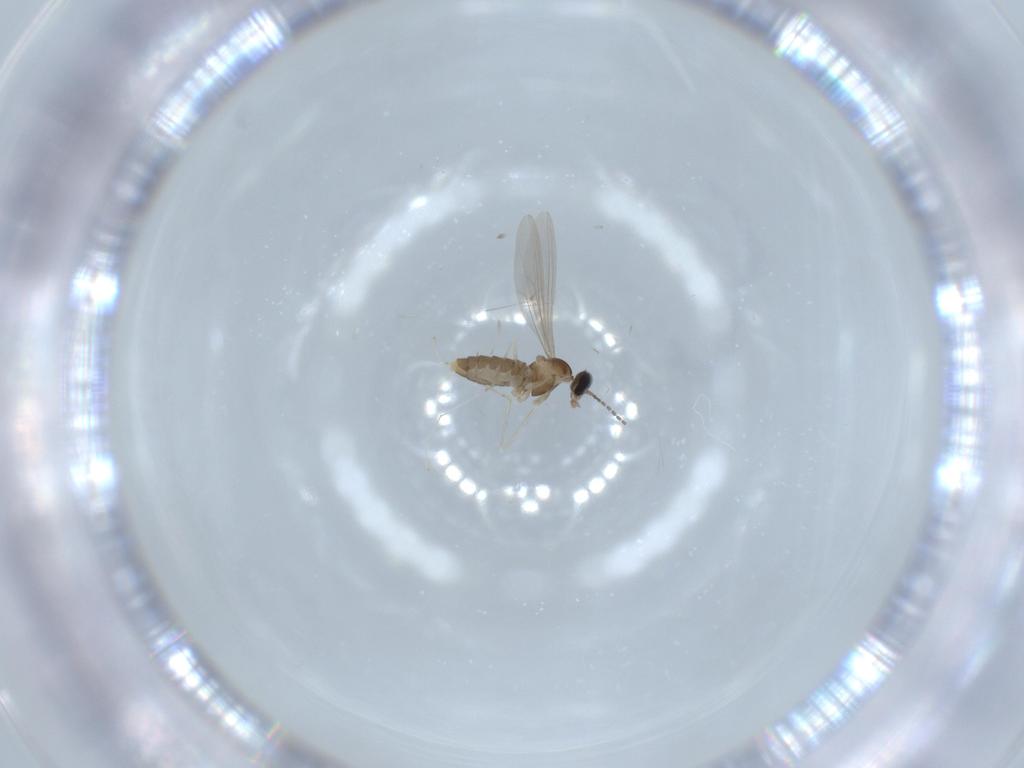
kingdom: Animalia
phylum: Arthropoda
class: Insecta
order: Diptera
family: Cecidomyiidae
